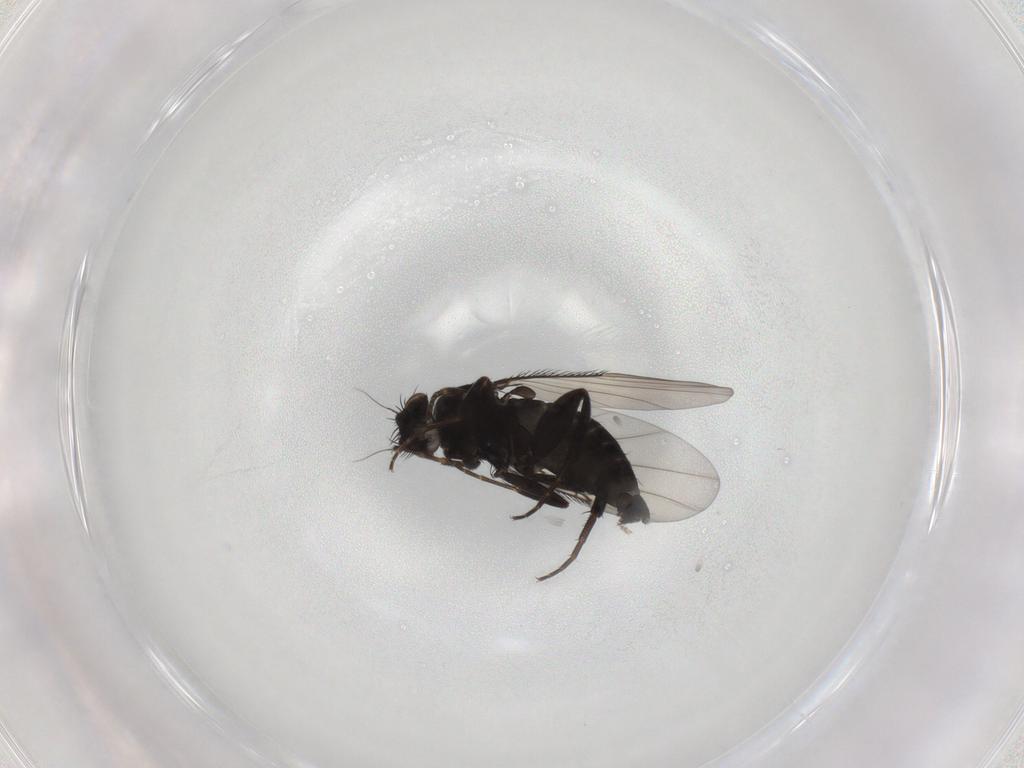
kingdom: Animalia
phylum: Arthropoda
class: Insecta
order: Diptera
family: Phoridae
